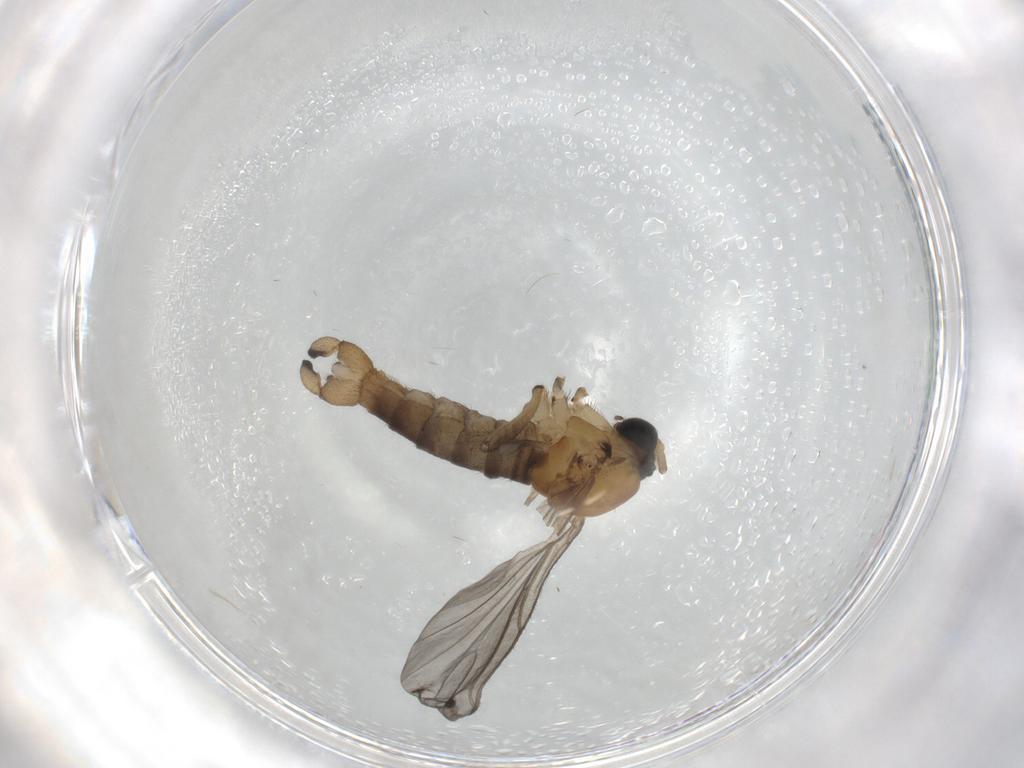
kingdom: Animalia
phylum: Arthropoda
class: Insecta
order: Diptera
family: Sciaridae
